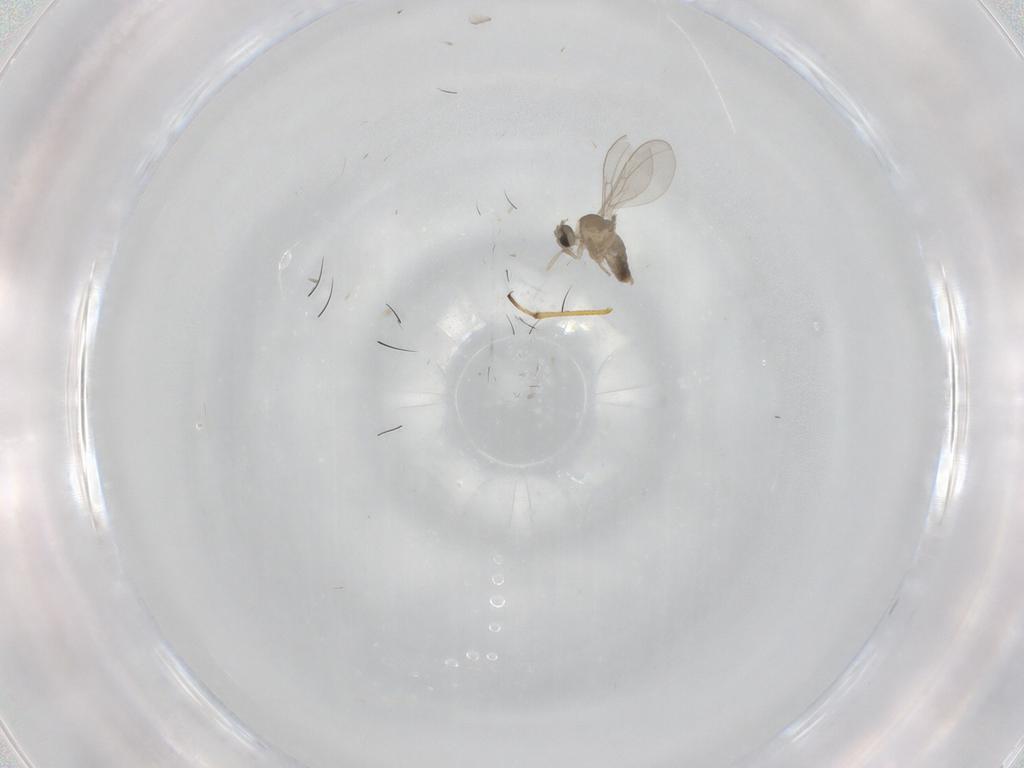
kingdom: Animalia
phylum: Arthropoda
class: Insecta
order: Diptera
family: Cecidomyiidae
